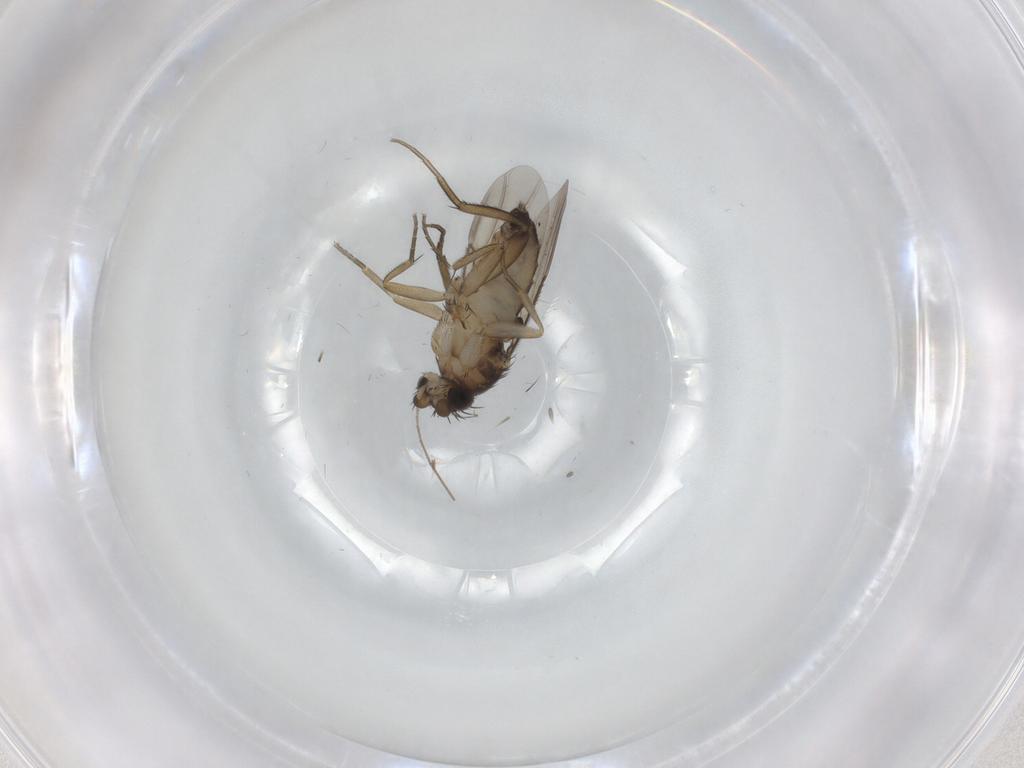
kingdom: Animalia
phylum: Arthropoda
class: Insecta
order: Diptera
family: Phoridae
